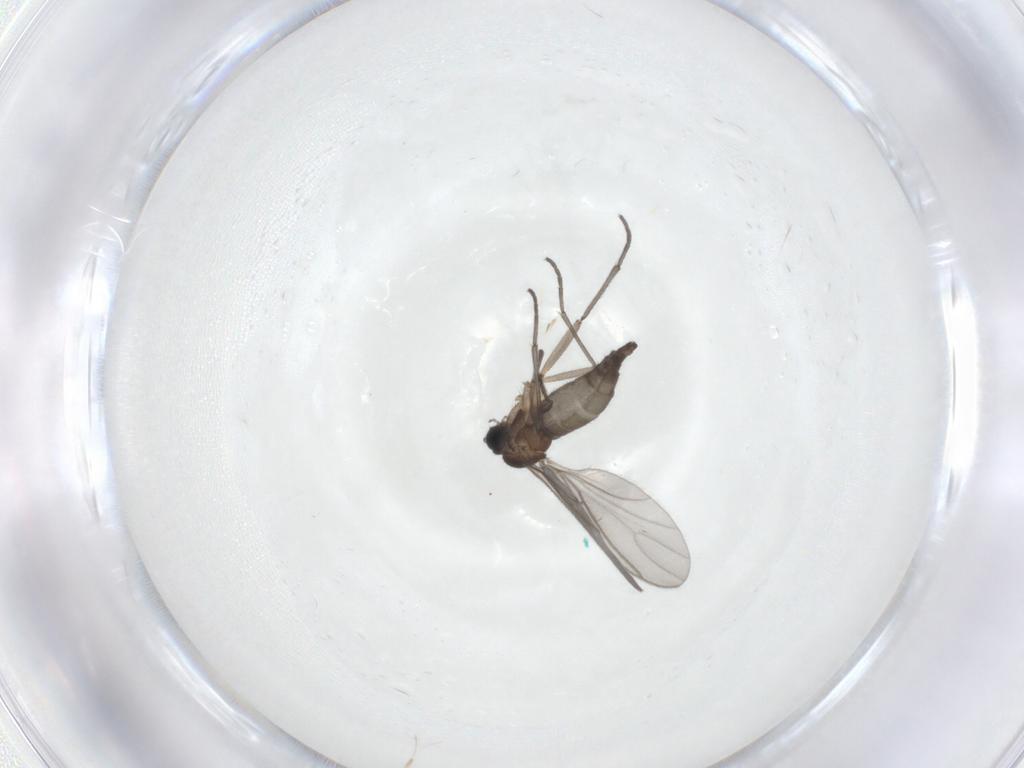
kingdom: Animalia
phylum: Arthropoda
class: Insecta
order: Diptera
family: Sciaridae
